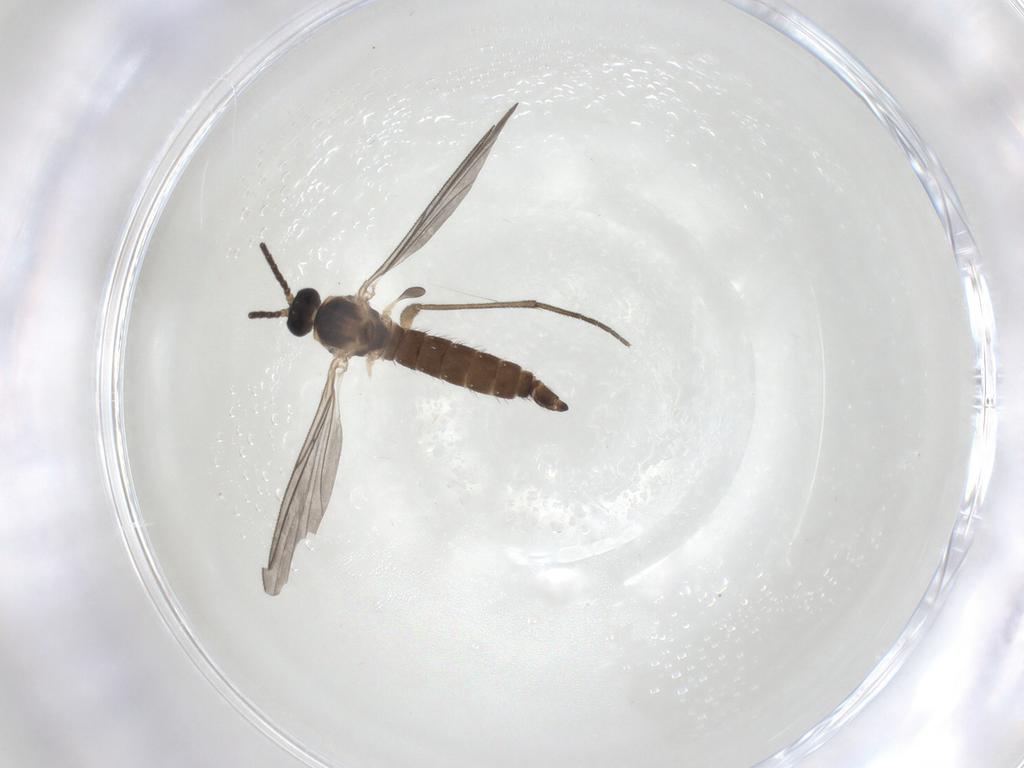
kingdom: Animalia
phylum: Arthropoda
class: Insecta
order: Diptera
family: Sciaridae
